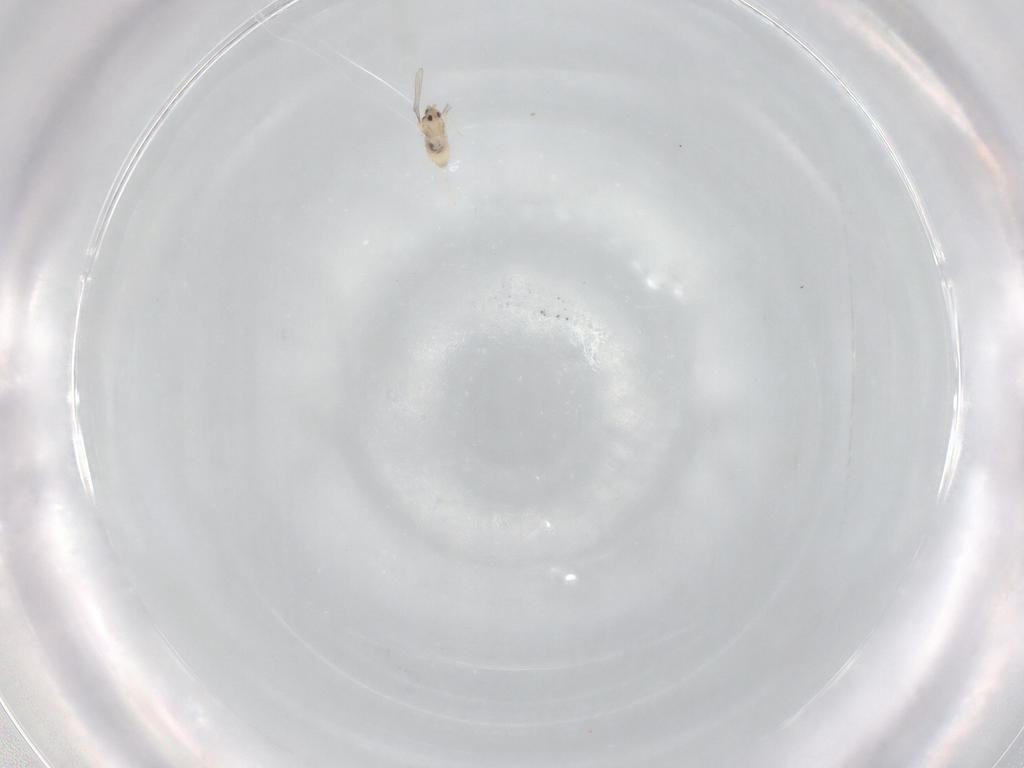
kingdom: Animalia
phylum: Arthropoda
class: Insecta
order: Diptera
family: Cecidomyiidae
